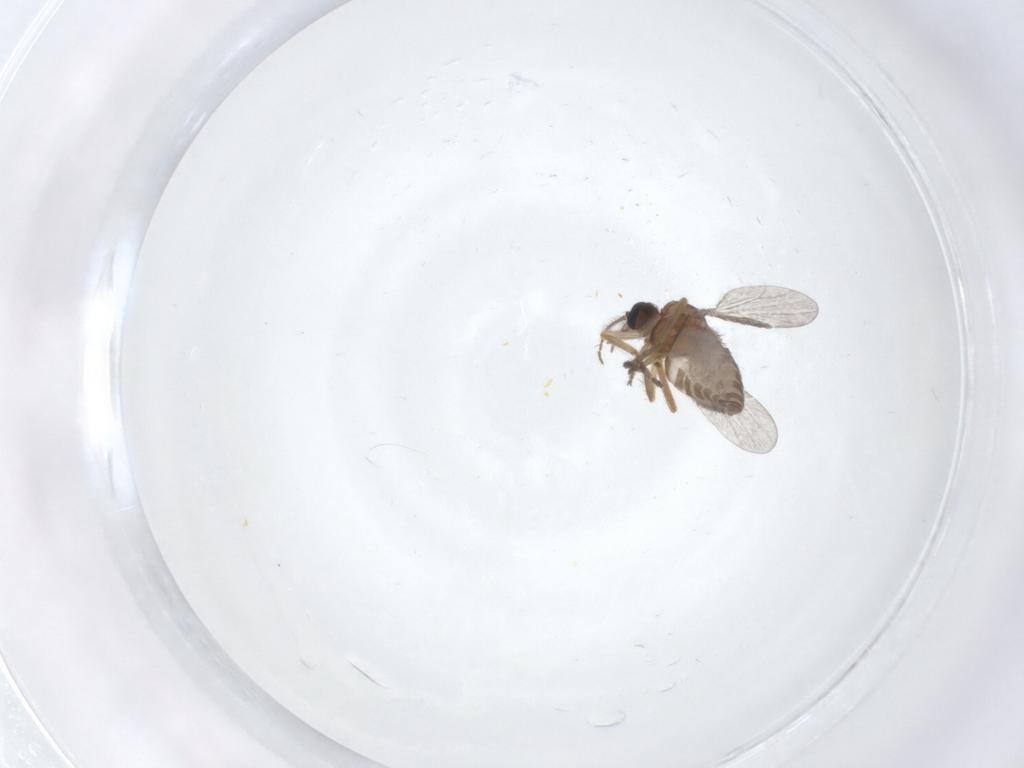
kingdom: Animalia
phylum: Arthropoda
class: Insecta
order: Diptera
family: Ceratopogonidae
